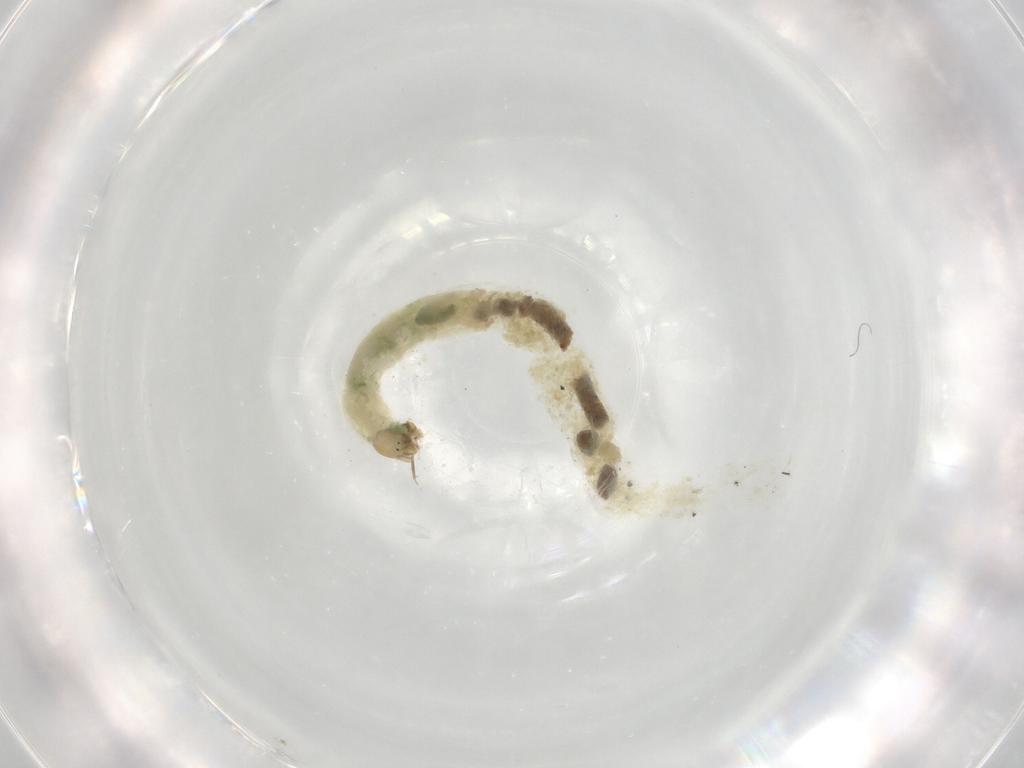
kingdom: Animalia
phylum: Arthropoda
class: Insecta
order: Diptera
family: Chironomidae
